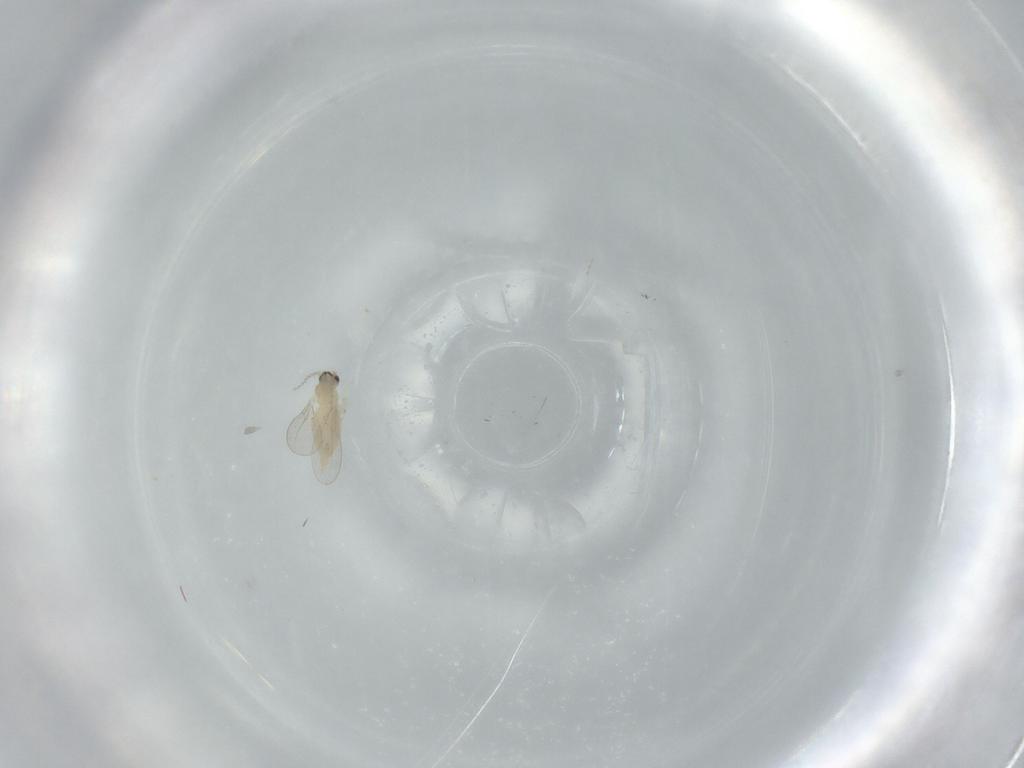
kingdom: Animalia
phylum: Arthropoda
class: Insecta
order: Diptera
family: Cecidomyiidae
